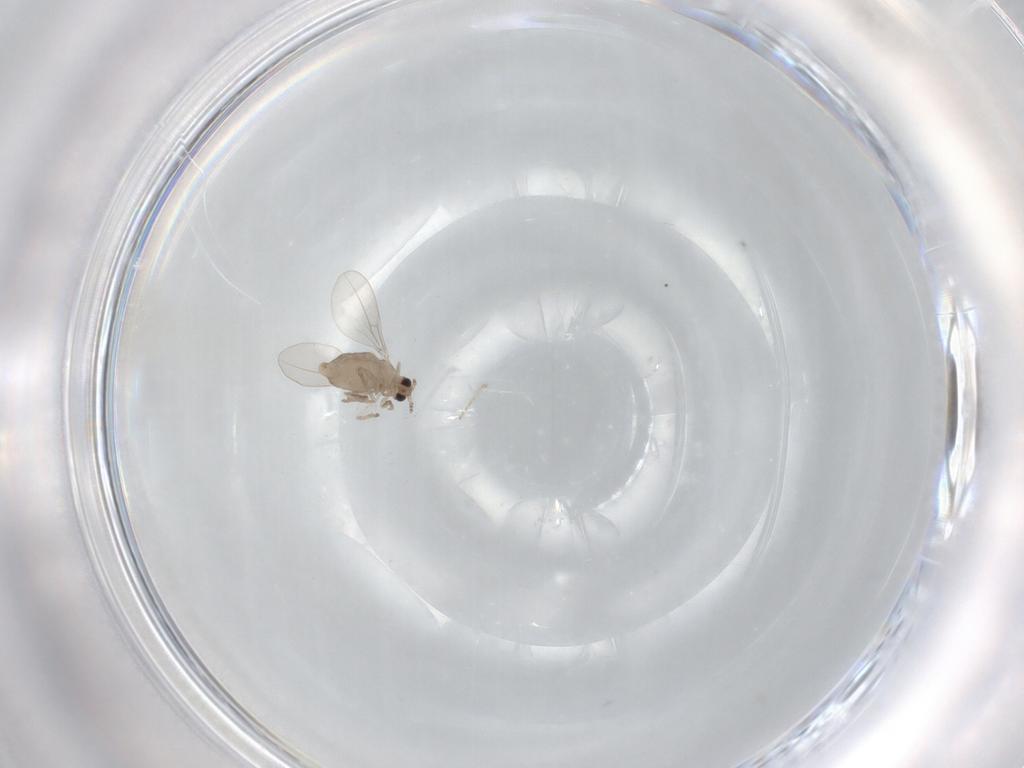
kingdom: Animalia
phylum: Arthropoda
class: Insecta
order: Diptera
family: Cecidomyiidae
